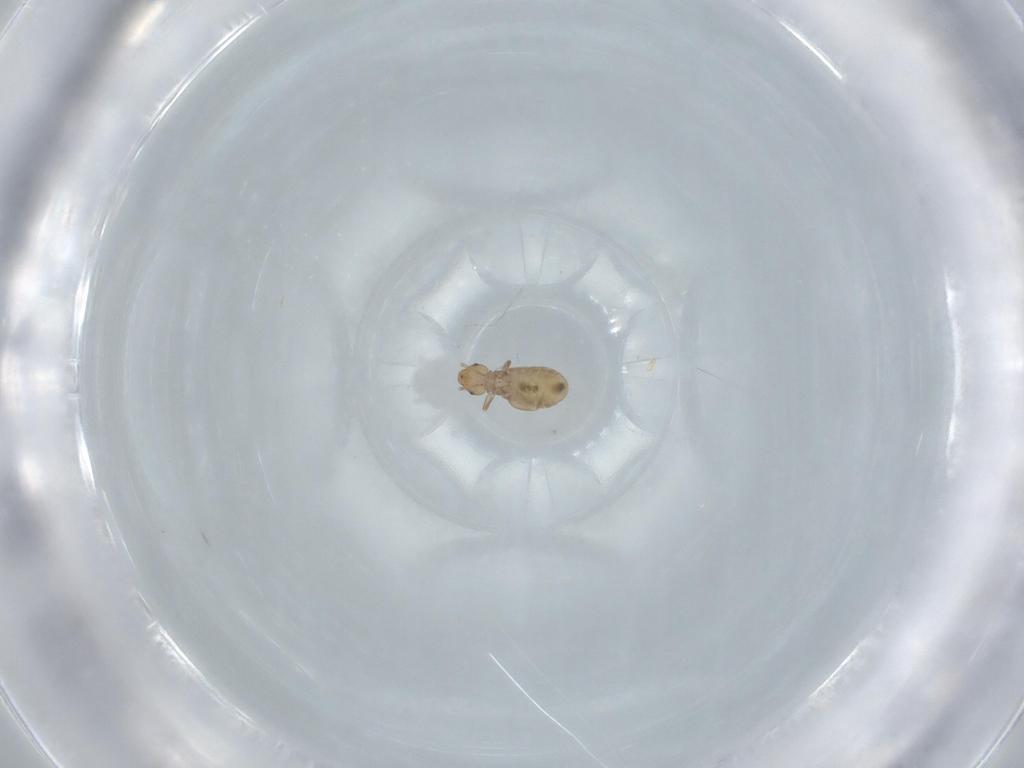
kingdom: Animalia
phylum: Arthropoda
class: Insecta
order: Psocodea
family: Liposcelididae
